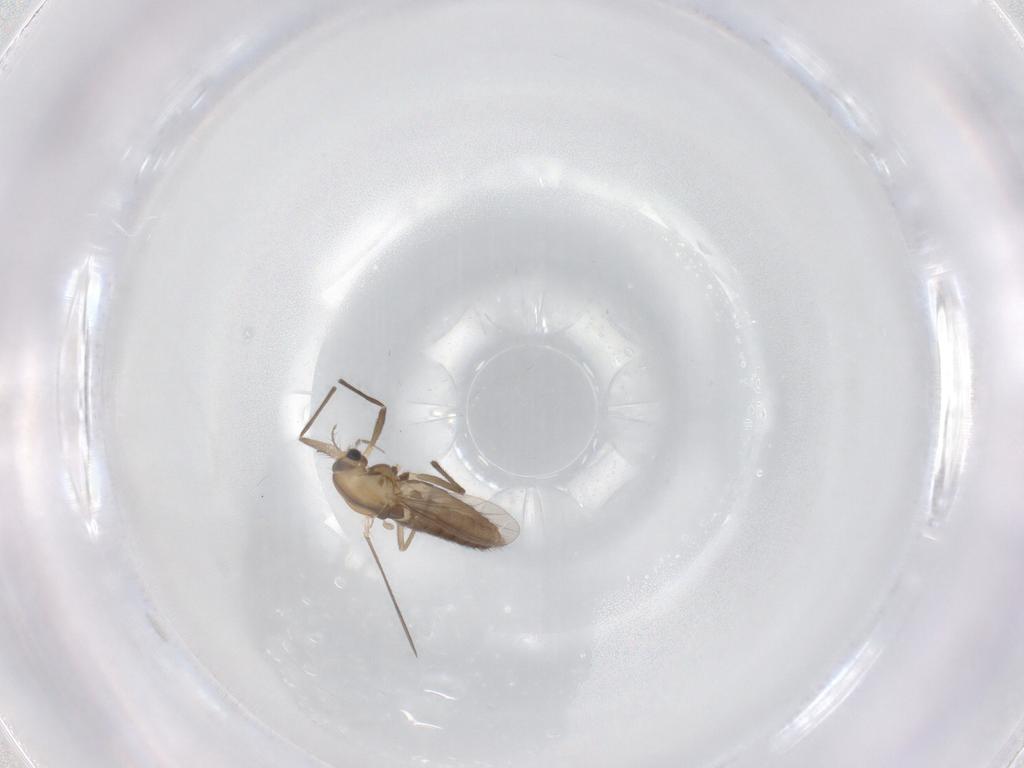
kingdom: Animalia
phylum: Arthropoda
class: Insecta
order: Diptera
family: Chironomidae
